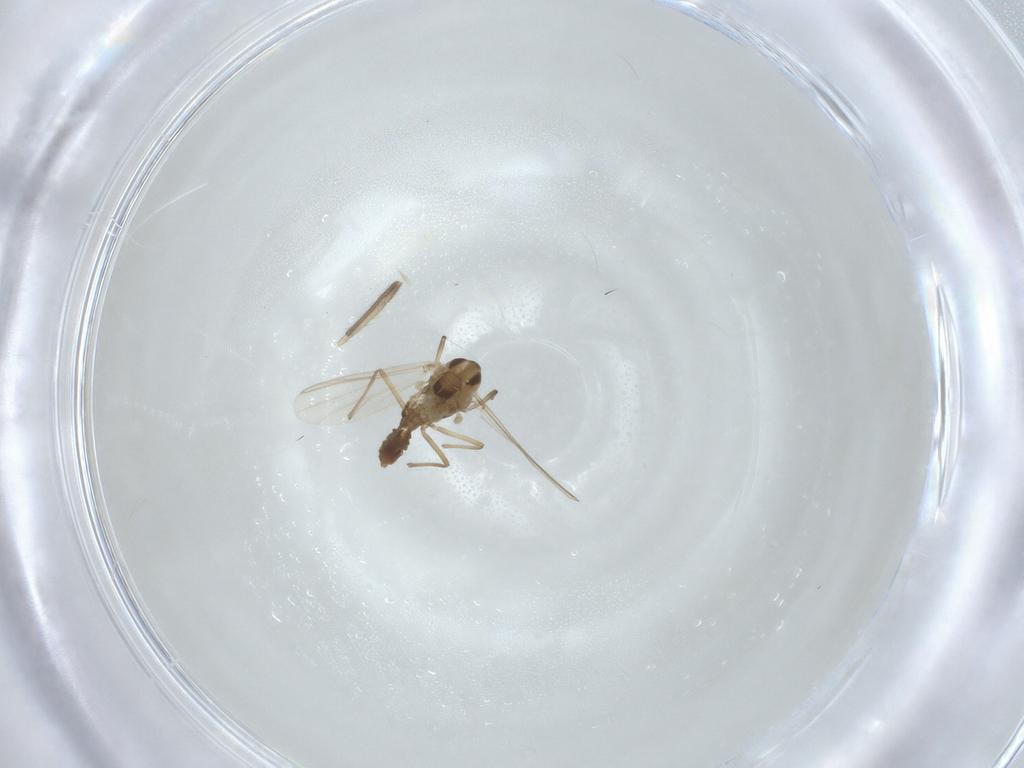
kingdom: Animalia
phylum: Arthropoda
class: Insecta
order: Diptera
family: Chironomidae
